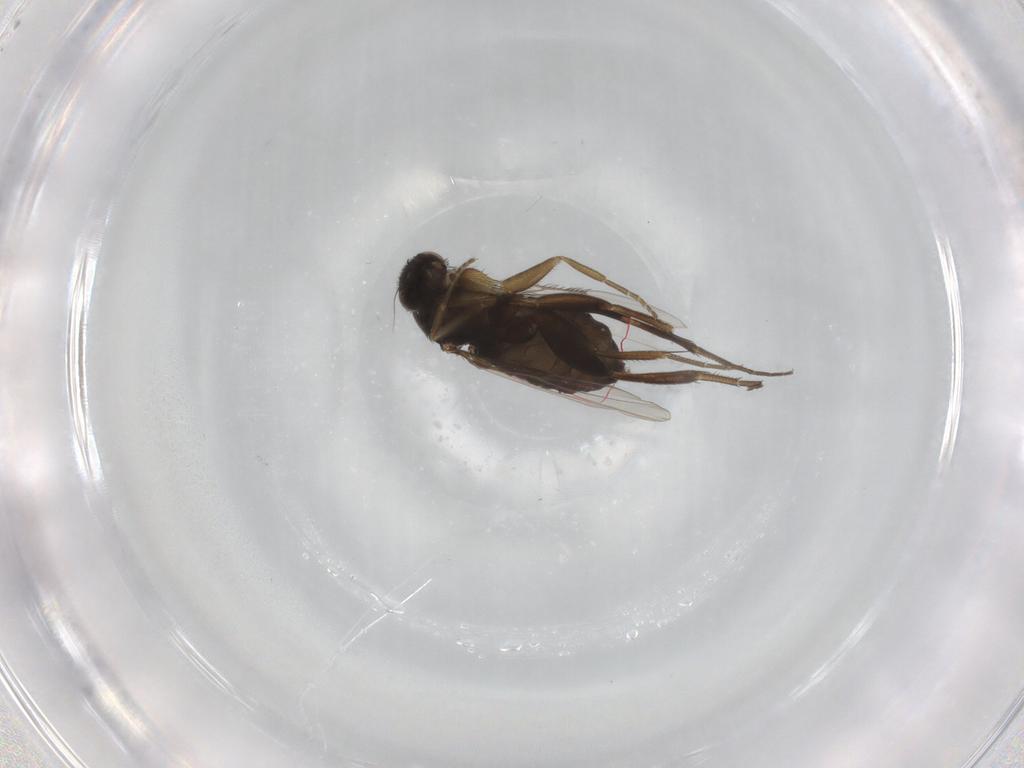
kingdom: Animalia
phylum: Arthropoda
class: Insecta
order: Diptera
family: Phoridae
